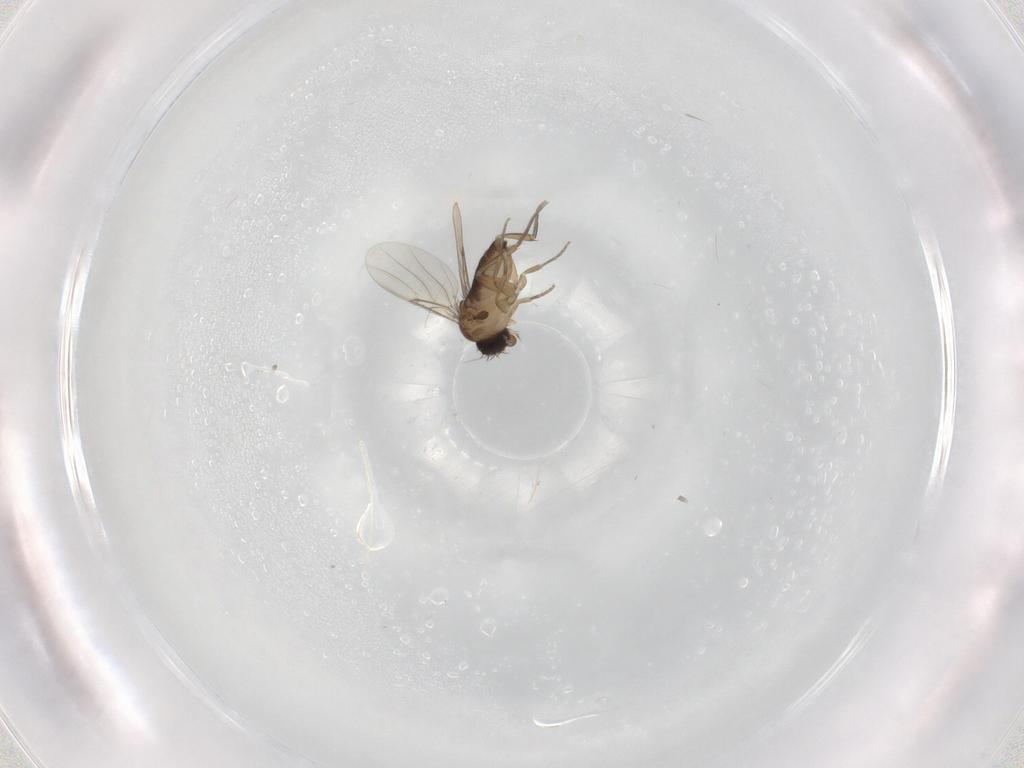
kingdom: Animalia
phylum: Arthropoda
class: Insecta
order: Diptera
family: Phoridae
